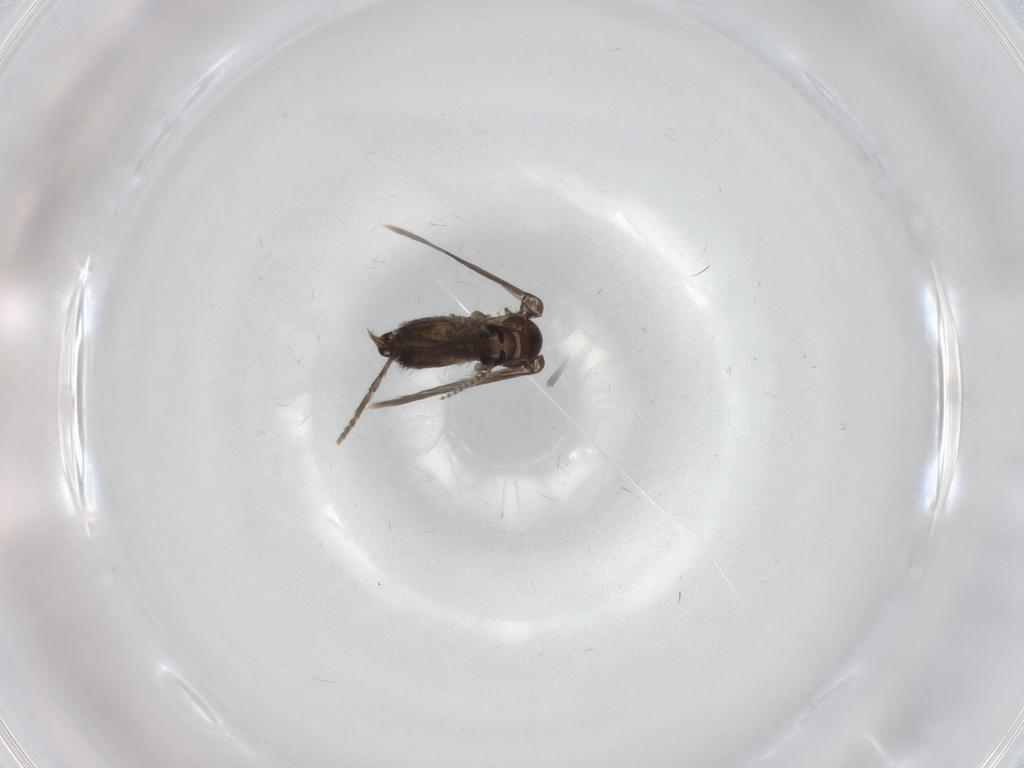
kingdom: Animalia
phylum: Arthropoda
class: Insecta
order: Diptera
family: Psychodidae
